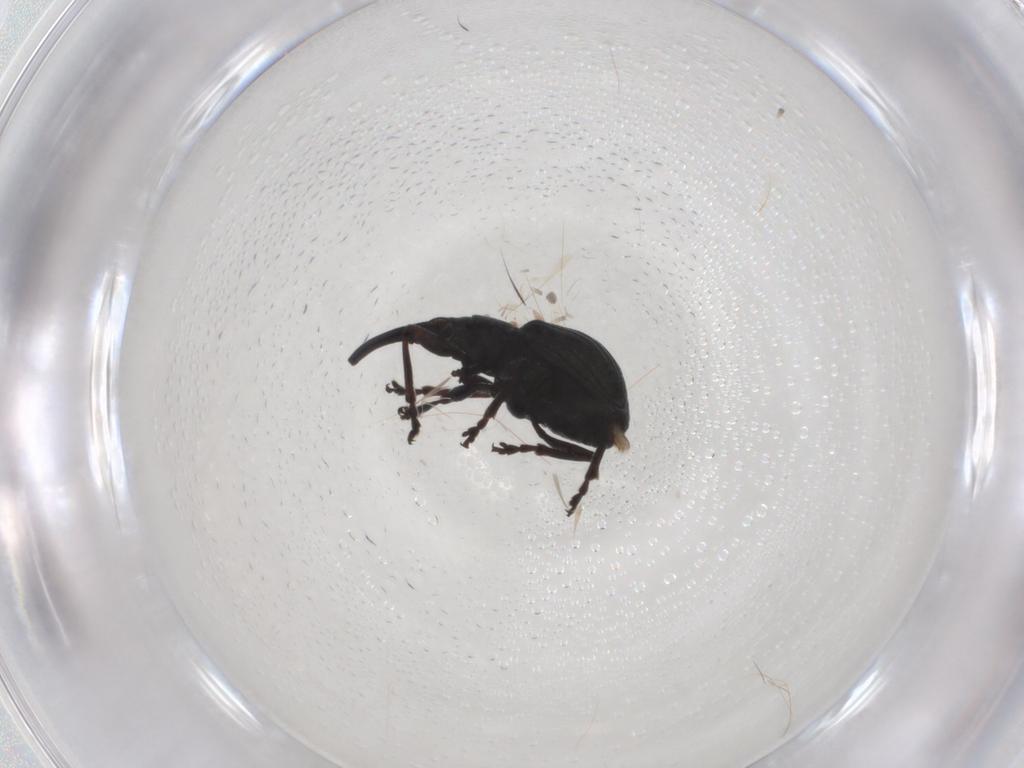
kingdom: Animalia
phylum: Arthropoda
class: Insecta
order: Coleoptera
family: Brentidae
